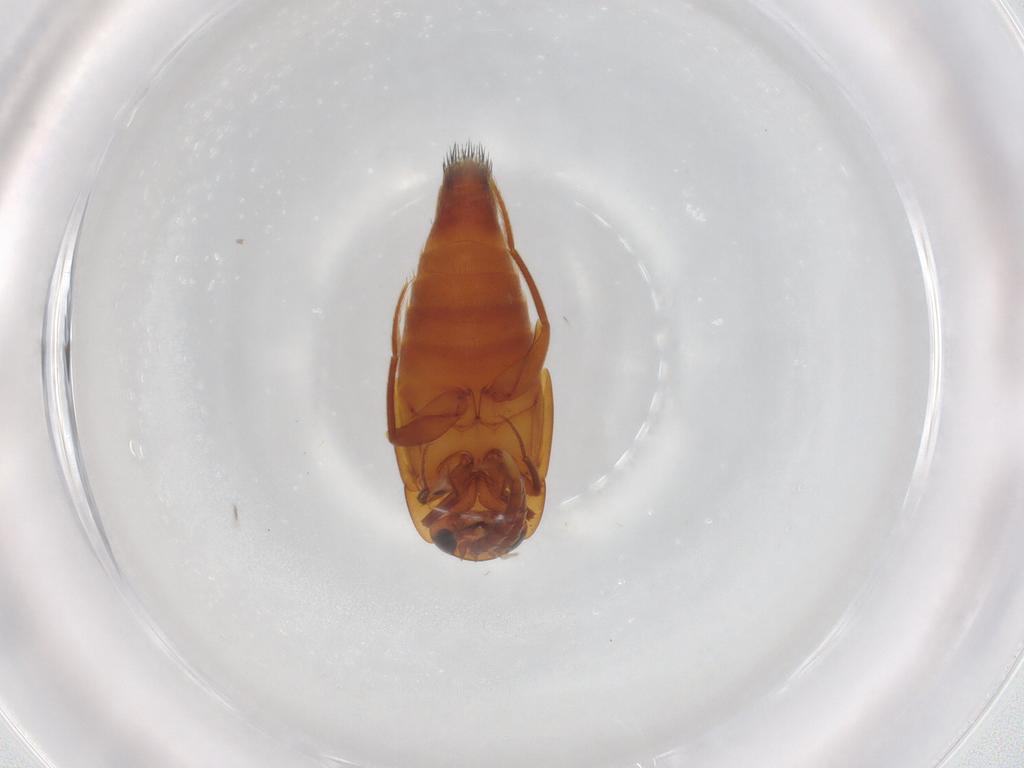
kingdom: Animalia
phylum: Arthropoda
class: Insecta
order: Coleoptera
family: Staphylinidae
